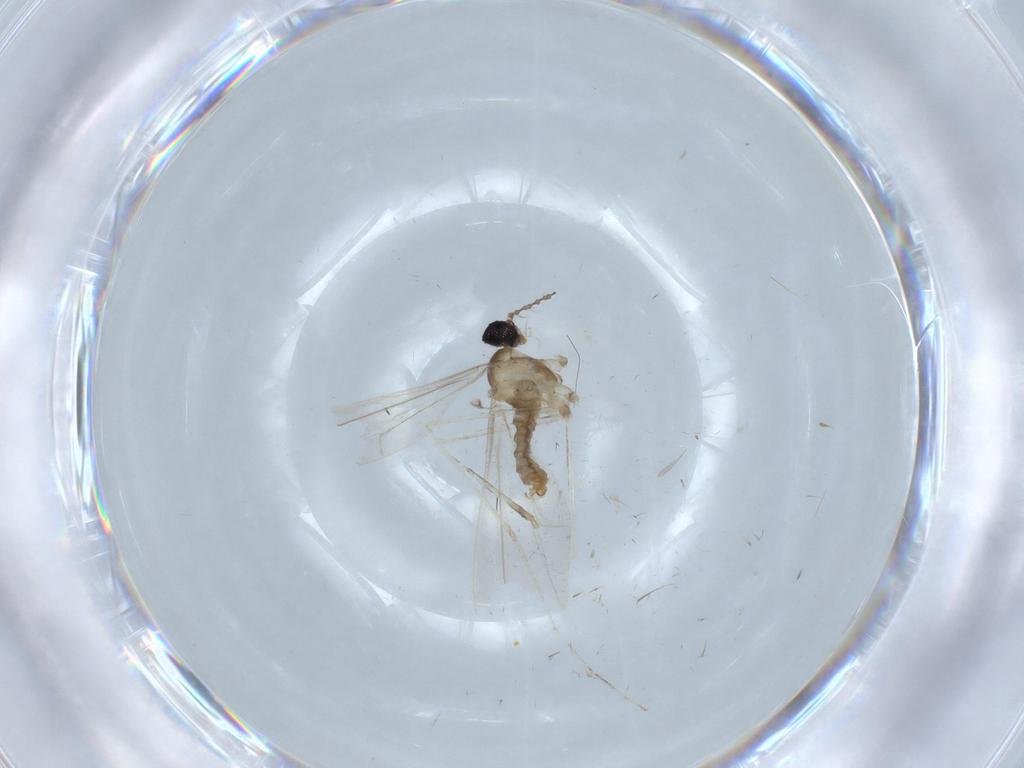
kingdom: Animalia
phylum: Arthropoda
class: Insecta
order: Diptera
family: Cecidomyiidae
